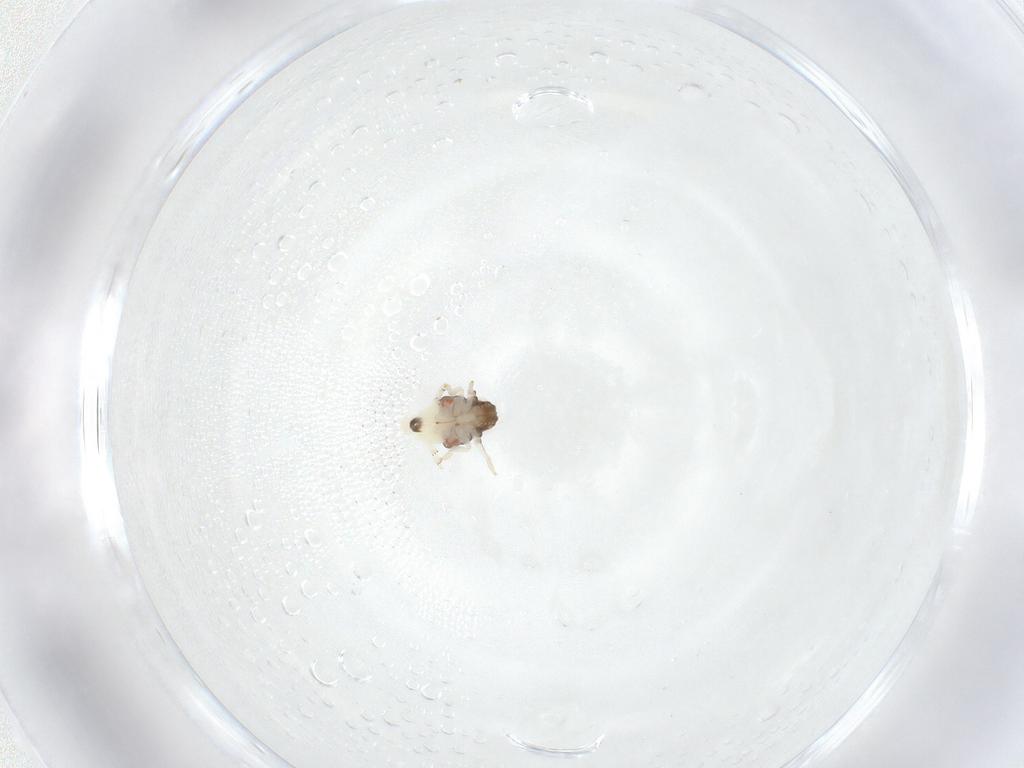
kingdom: Animalia
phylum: Arthropoda
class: Insecta
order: Hemiptera
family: Nogodinidae
